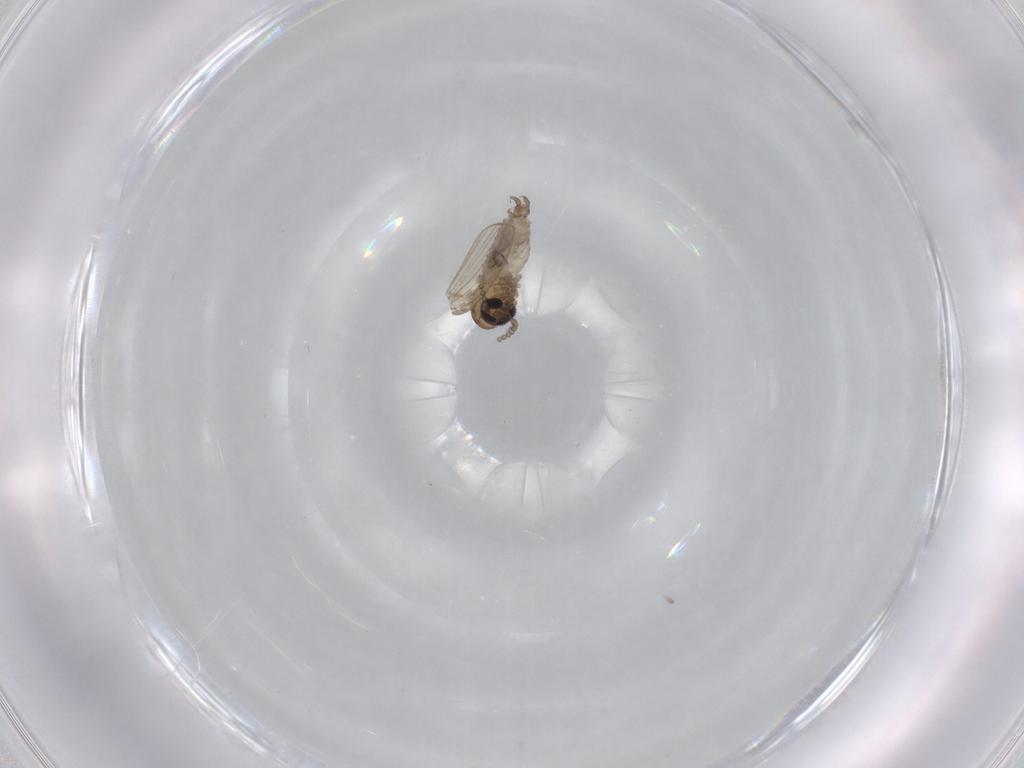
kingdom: Animalia
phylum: Arthropoda
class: Insecta
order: Diptera
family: Psychodidae
